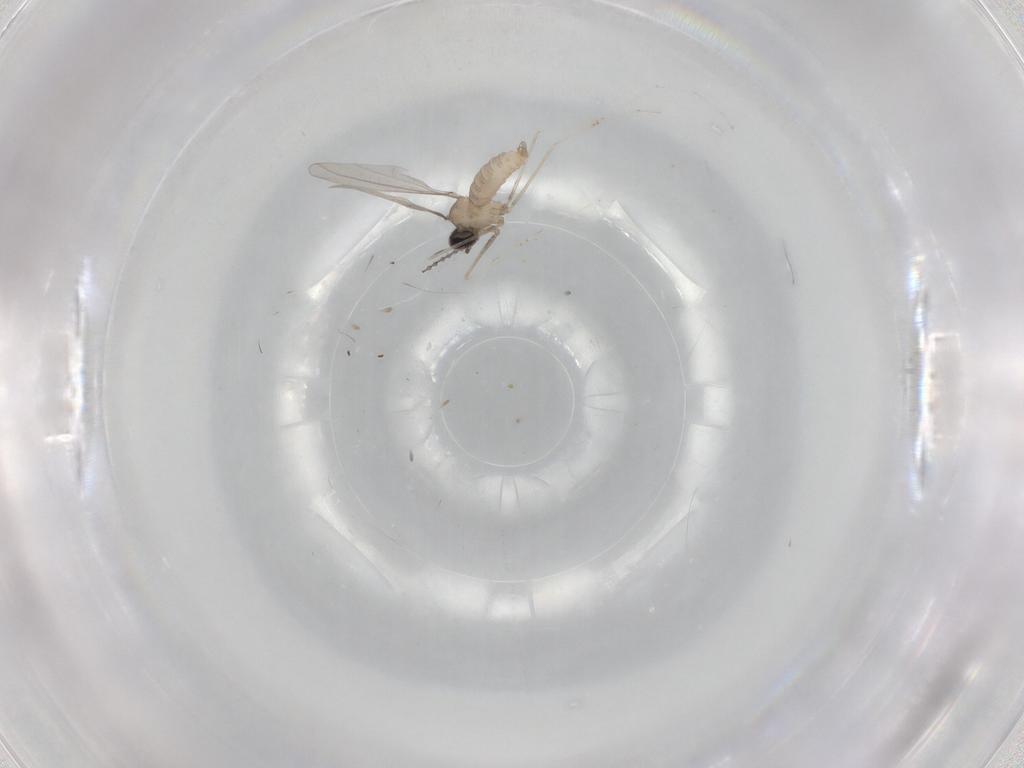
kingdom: Animalia
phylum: Arthropoda
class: Insecta
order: Diptera
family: Cecidomyiidae
